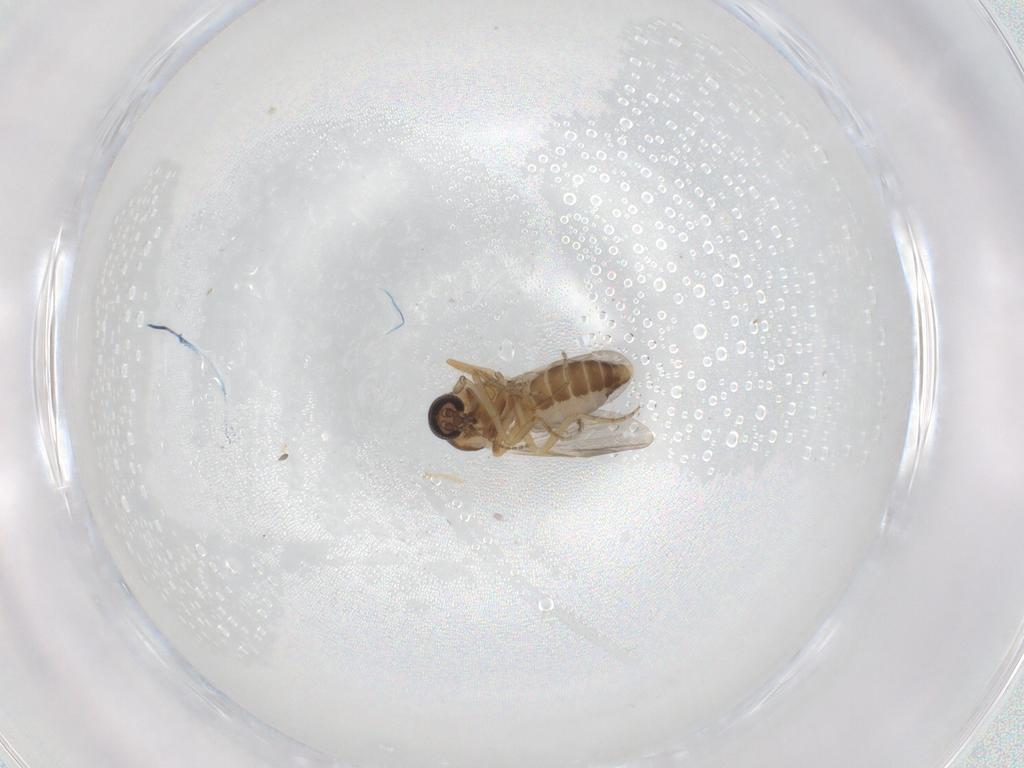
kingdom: Animalia
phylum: Arthropoda
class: Insecta
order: Diptera
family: Ceratopogonidae
